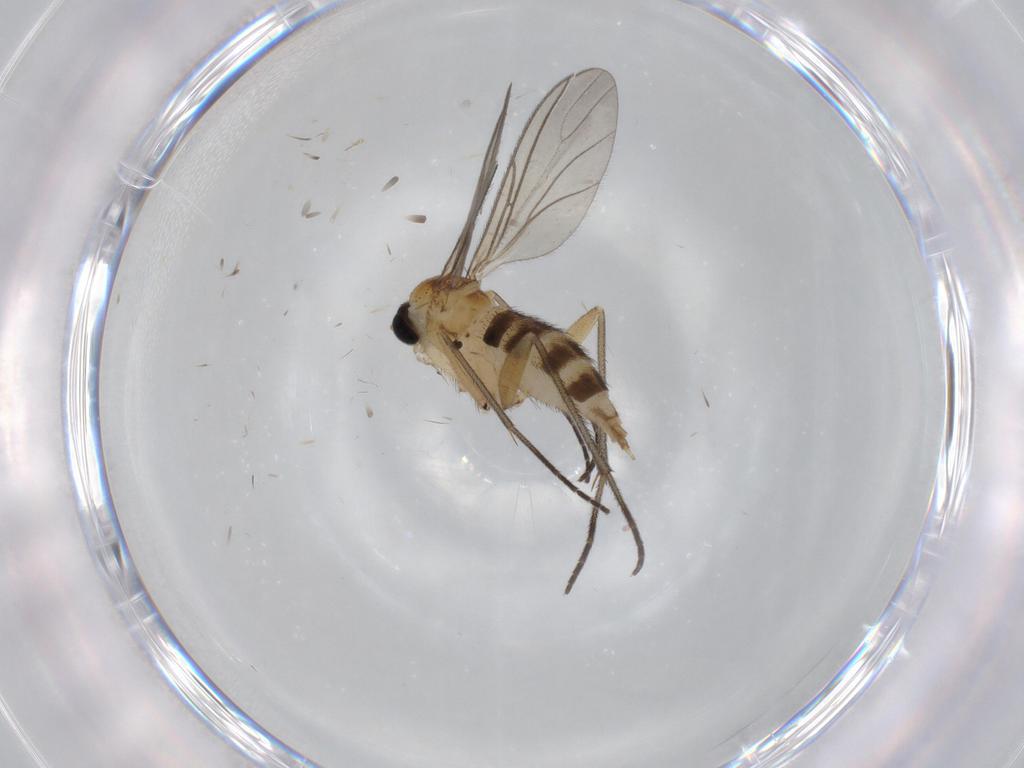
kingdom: Animalia
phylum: Arthropoda
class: Insecta
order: Diptera
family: Sciaridae
